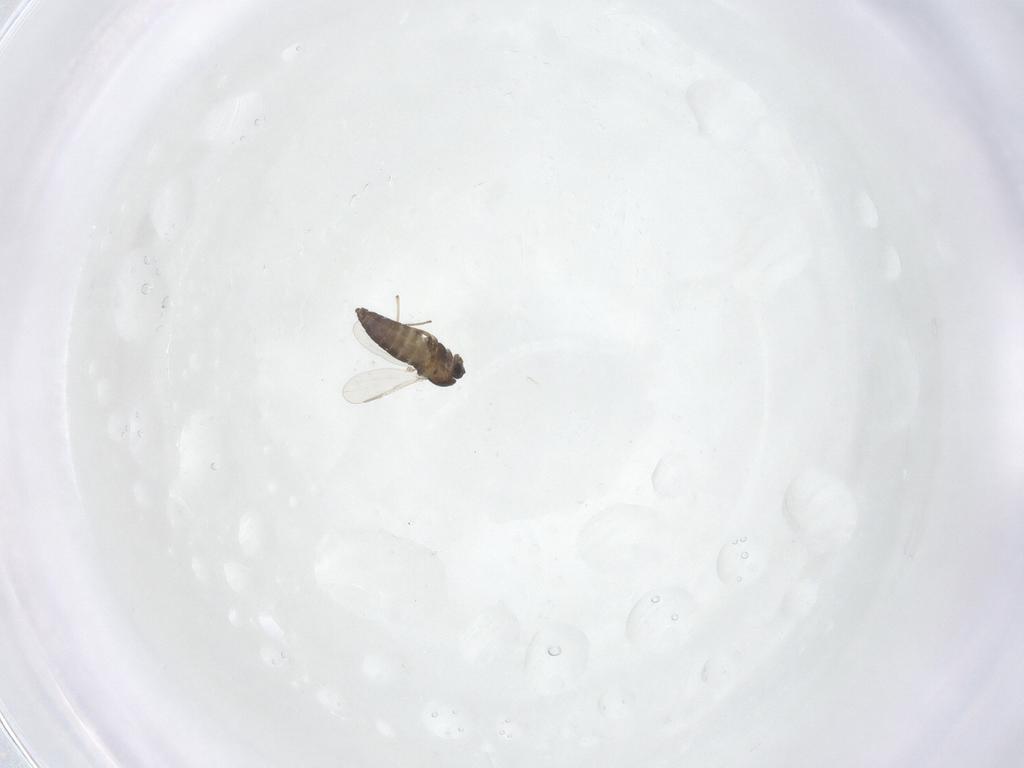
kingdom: Animalia
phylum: Arthropoda
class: Insecta
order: Diptera
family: Chironomidae
